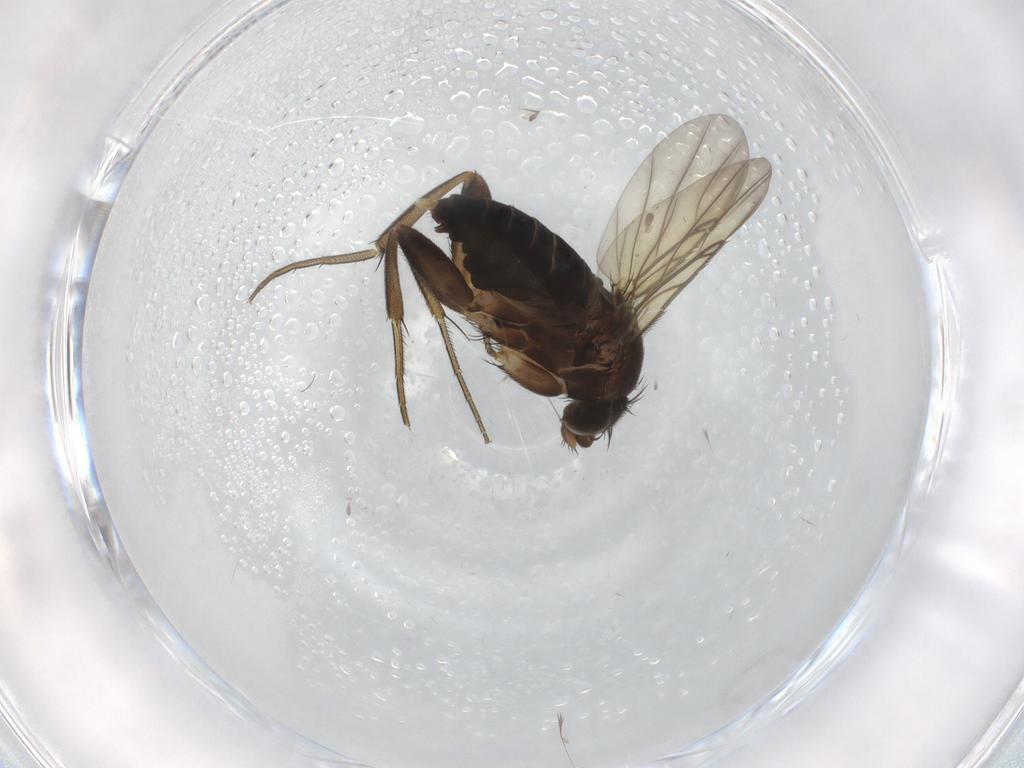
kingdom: Animalia
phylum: Arthropoda
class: Insecta
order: Diptera
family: Phoridae
